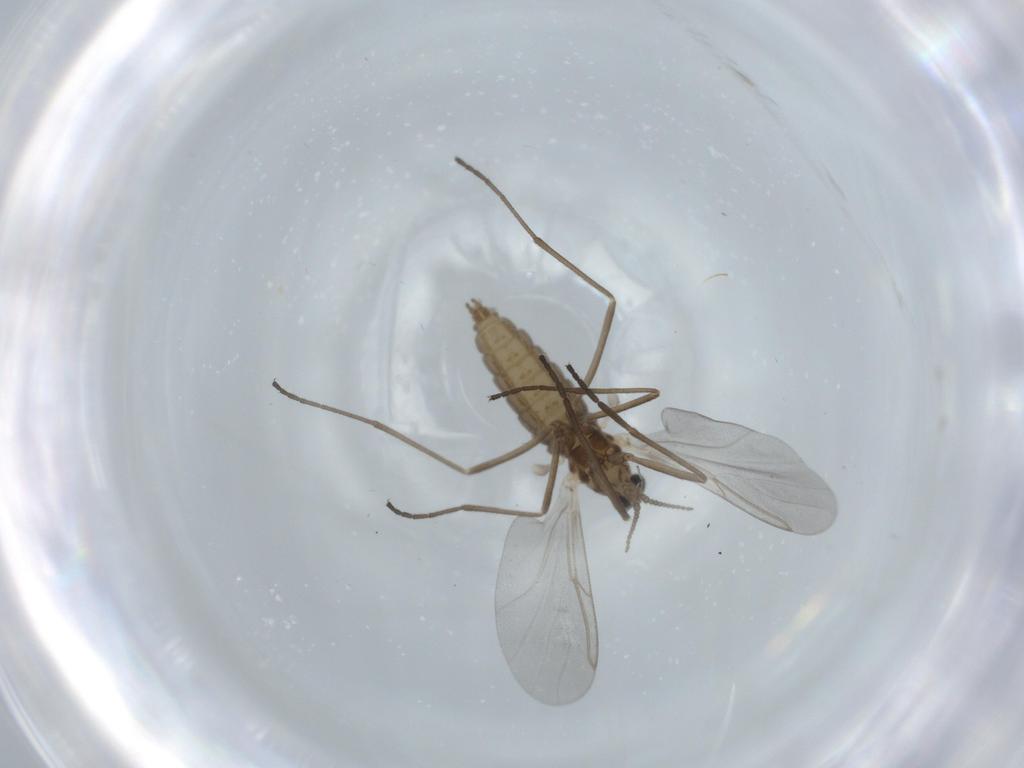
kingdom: Animalia
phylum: Arthropoda
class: Insecta
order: Diptera
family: Cecidomyiidae
